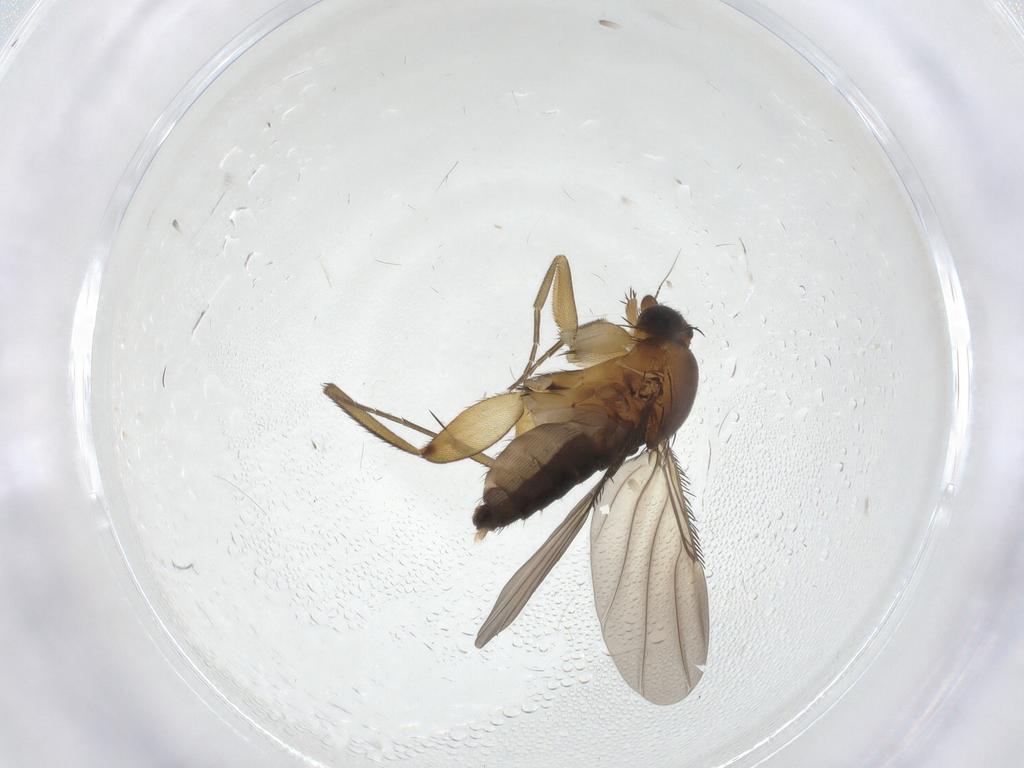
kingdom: Animalia
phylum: Arthropoda
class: Insecta
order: Diptera
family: Phoridae
